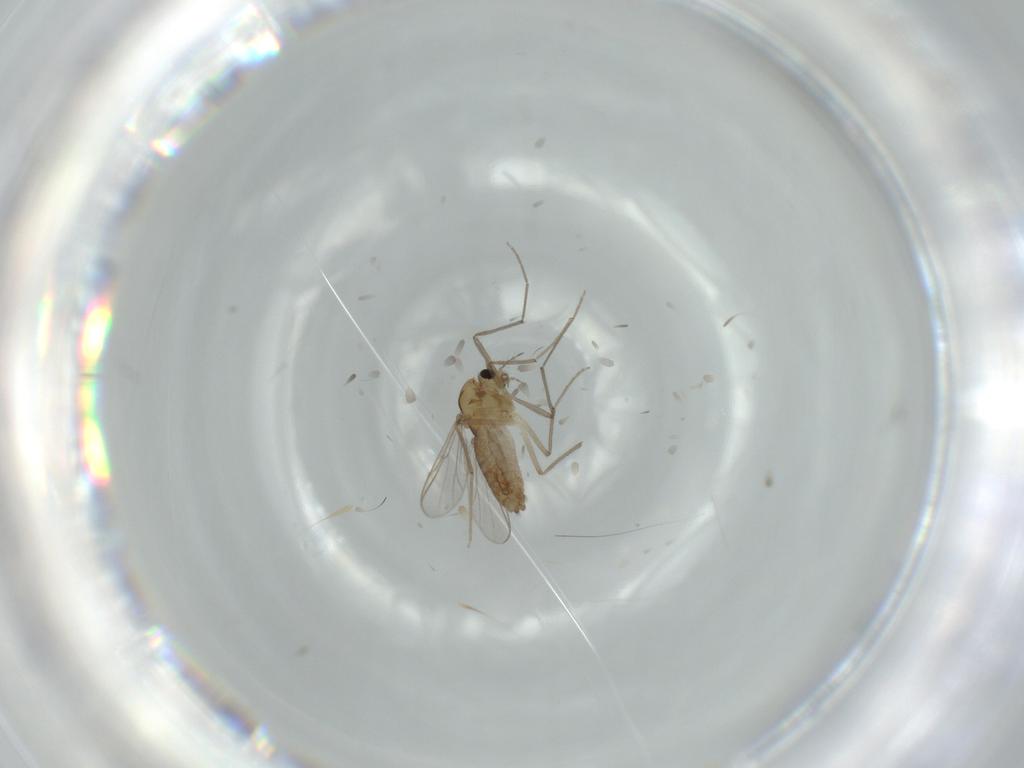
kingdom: Animalia
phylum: Arthropoda
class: Insecta
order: Diptera
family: Chironomidae
